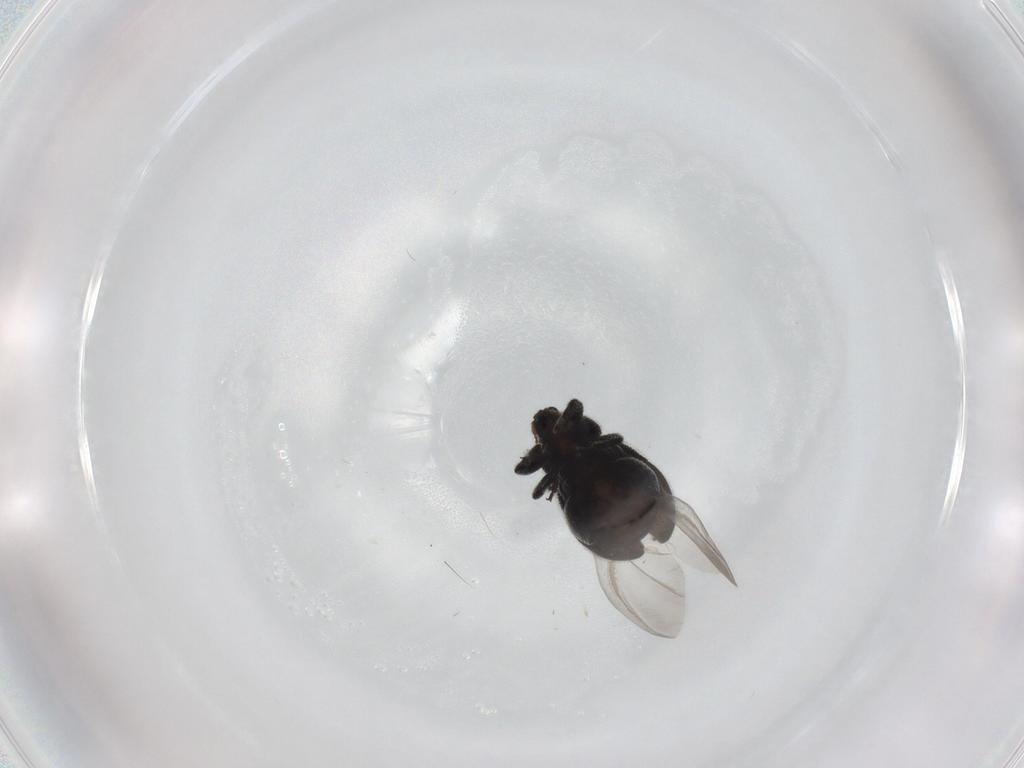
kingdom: Animalia
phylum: Arthropoda
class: Insecta
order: Coleoptera
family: Curculionidae
